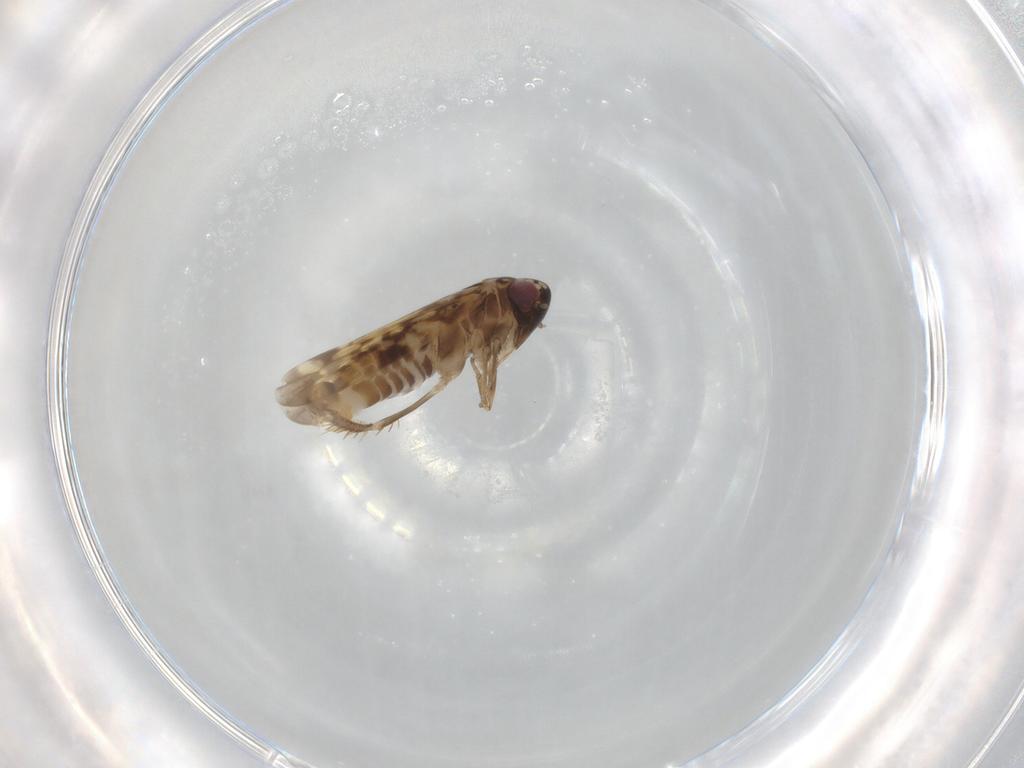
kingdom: Animalia
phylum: Arthropoda
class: Insecta
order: Hemiptera
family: Cicadellidae
